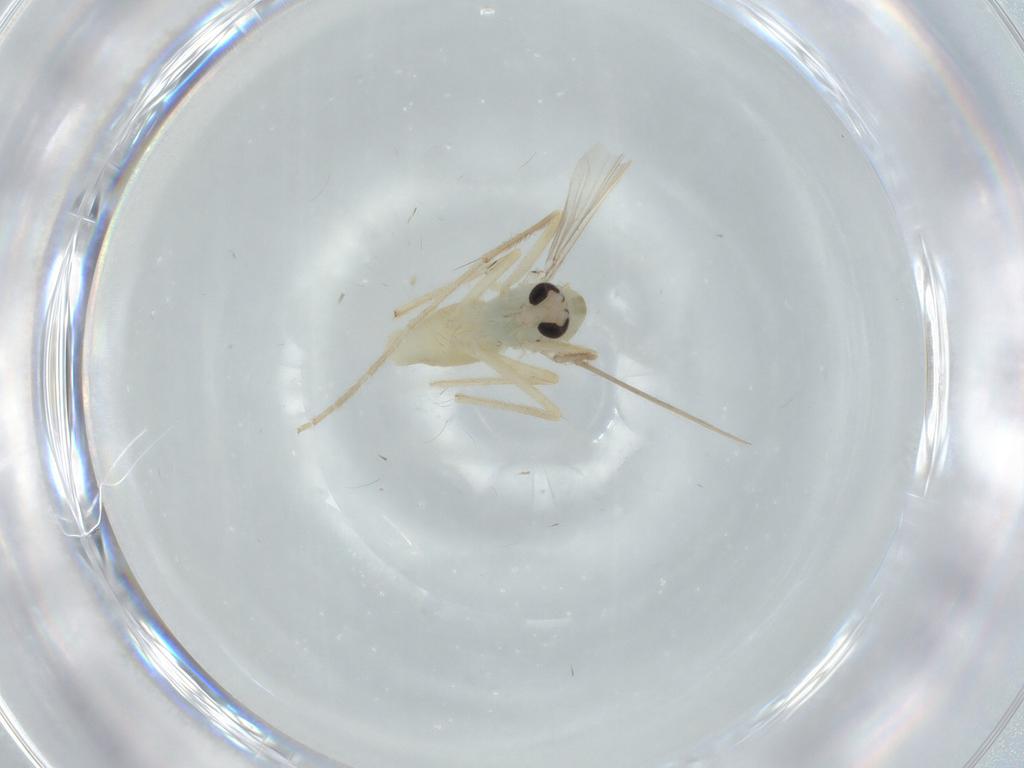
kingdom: Animalia
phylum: Arthropoda
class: Insecta
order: Diptera
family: Chironomidae
